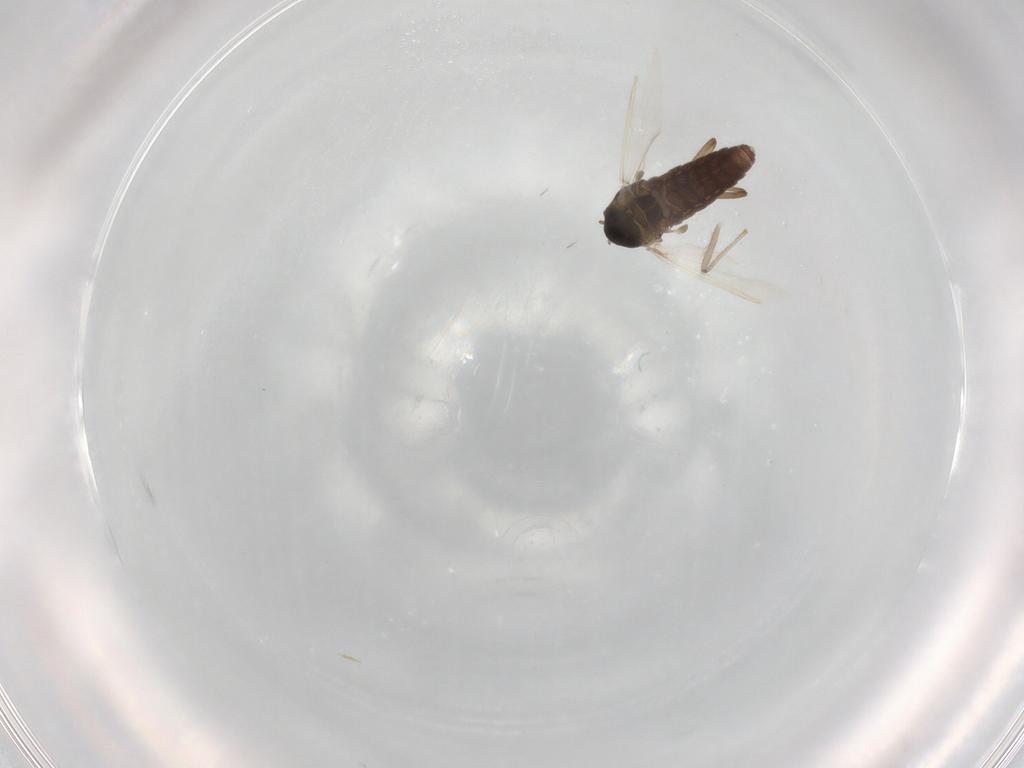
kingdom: Animalia
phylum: Arthropoda
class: Insecta
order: Diptera
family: Chironomidae
